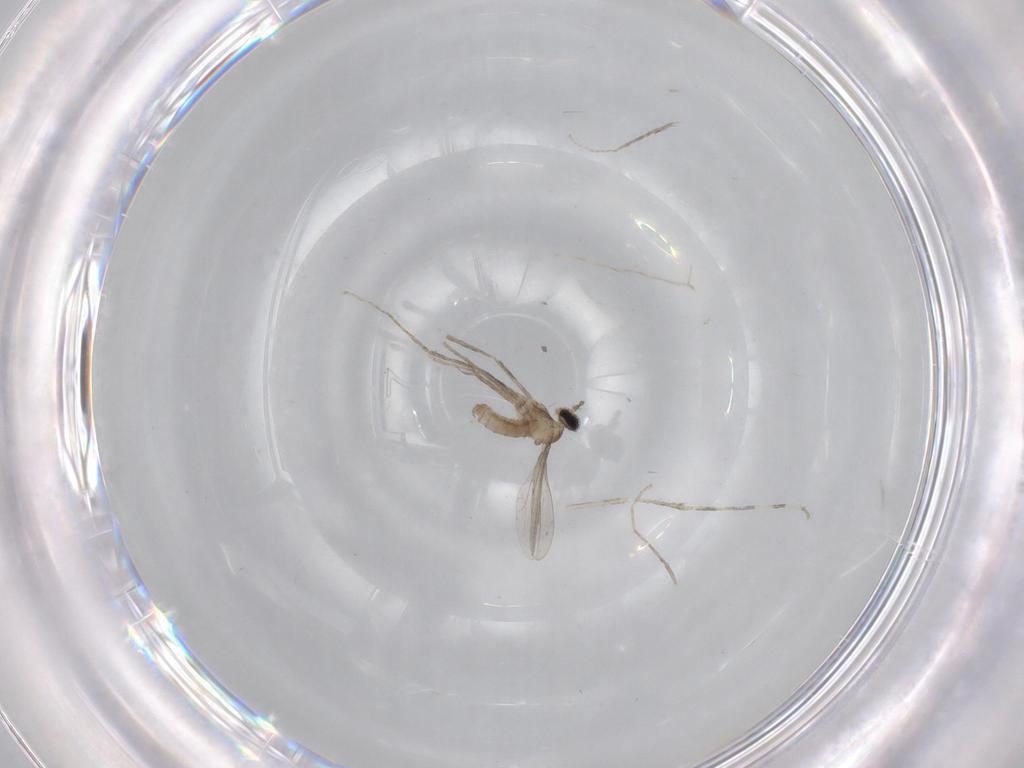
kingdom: Animalia
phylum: Arthropoda
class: Insecta
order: Diptera
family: Cecidomyiidae
